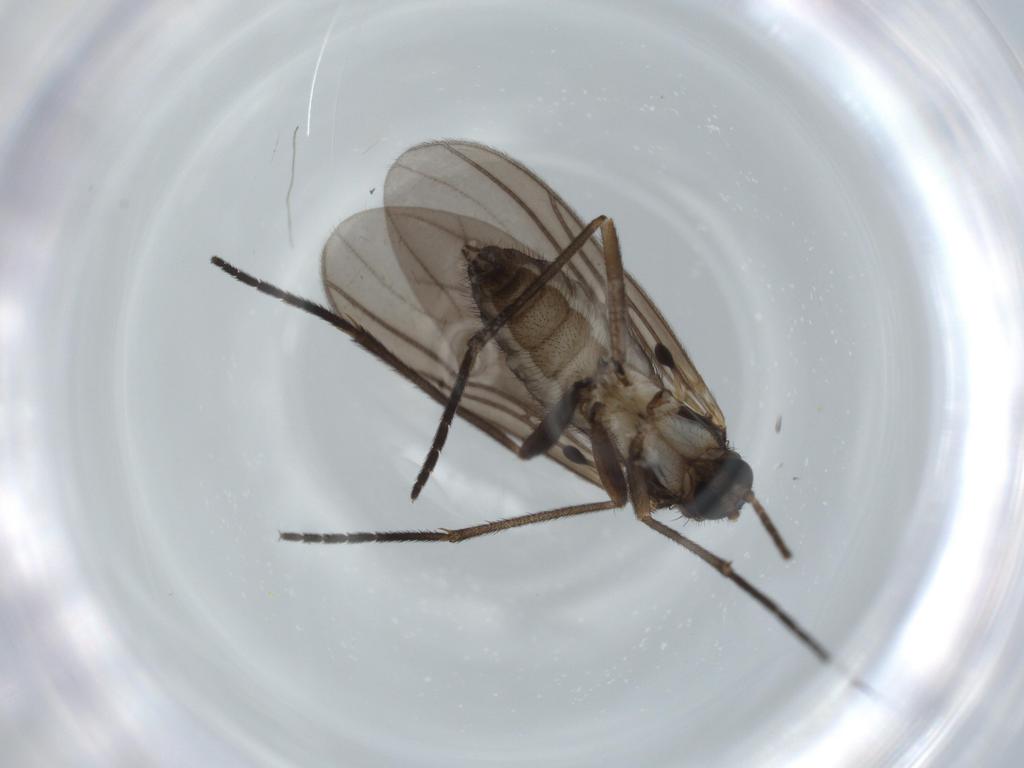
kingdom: Animalia
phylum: Arthropoda
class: Insecta
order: Diptera
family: Sciaridae
